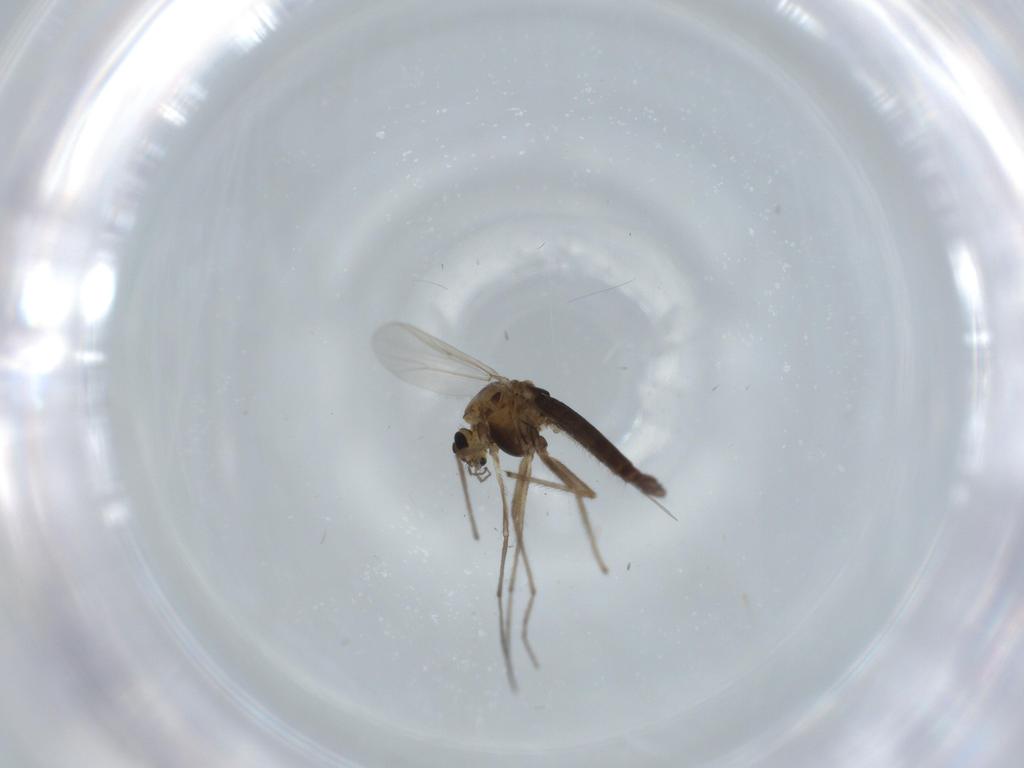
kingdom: Animalia
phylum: Arthropoda
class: Insecta
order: Diptera
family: Chironomidae
